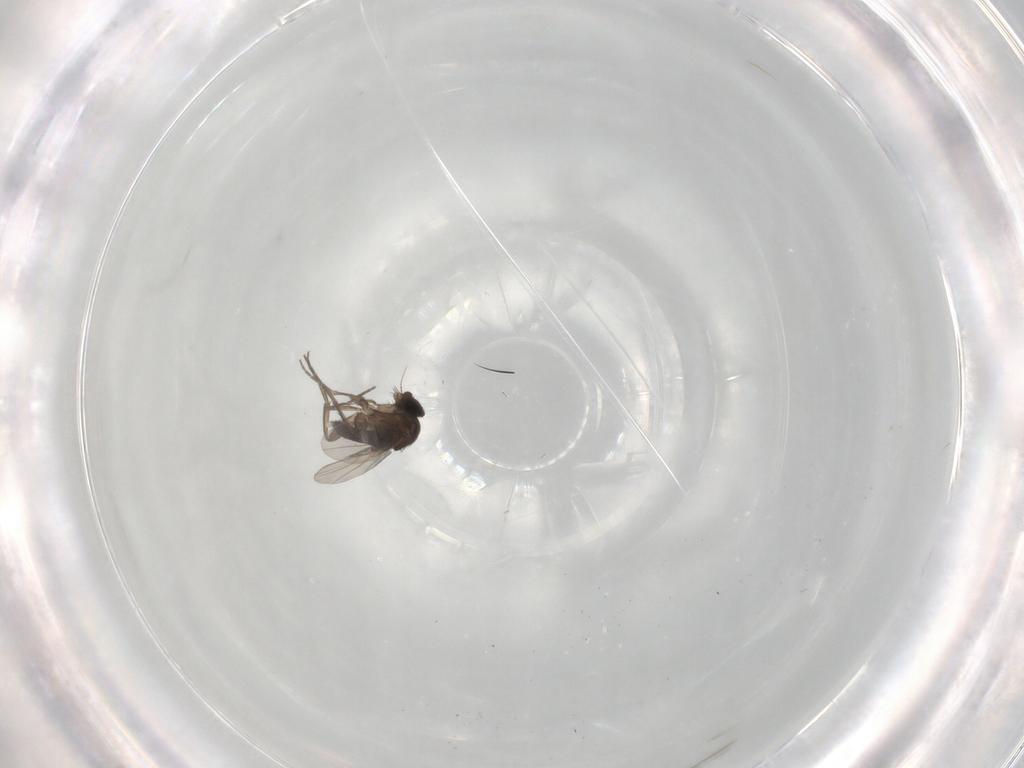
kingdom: Animalia
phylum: Arthropoda
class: Insecta
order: Diptera
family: Phoridae
